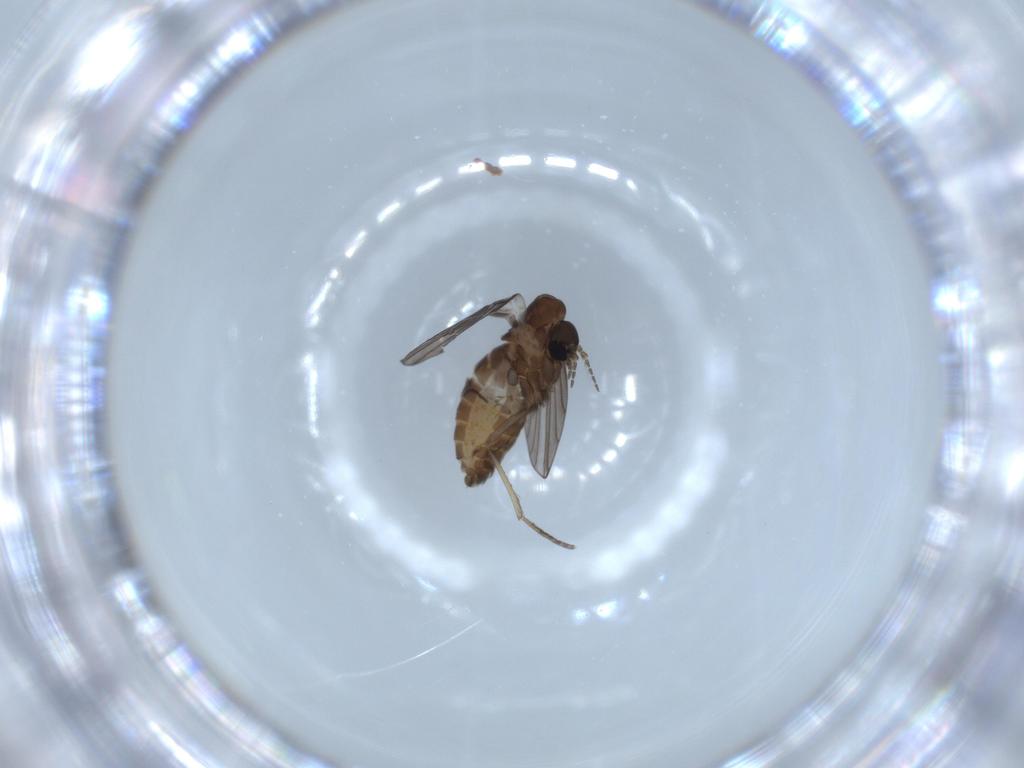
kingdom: Animalia
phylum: Arthropoda
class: Insecta
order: Diptera
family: Psychodidae
